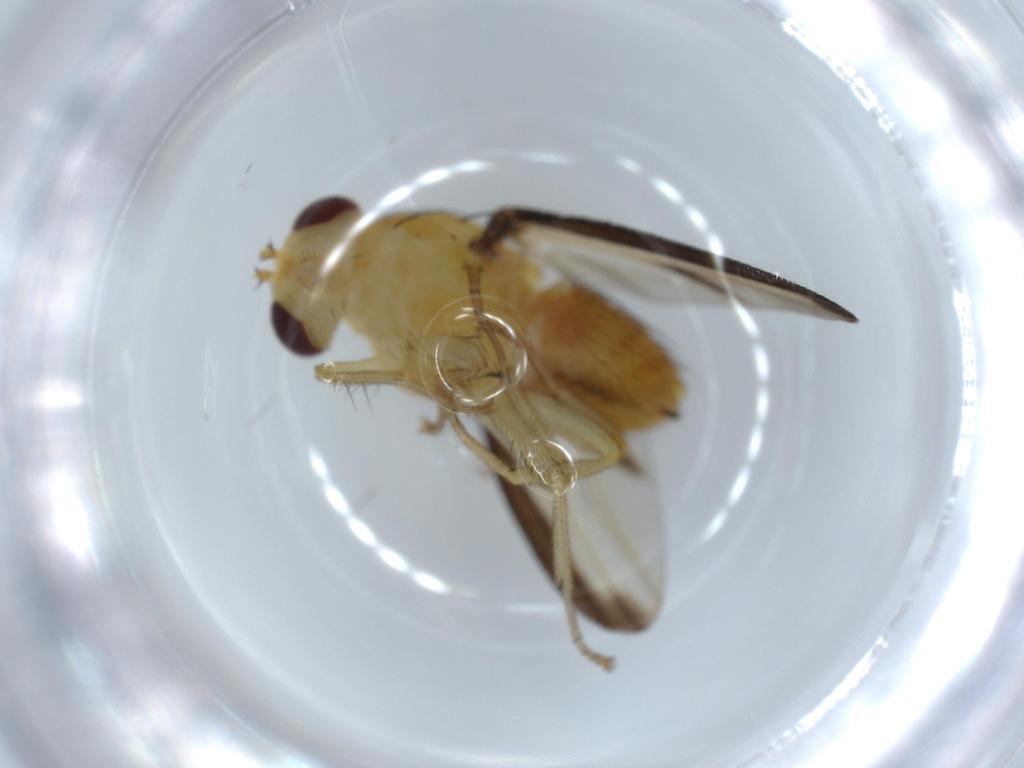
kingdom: Animalia
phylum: Arthropoda
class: Insecta
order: Diptera
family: Lauxaniidae
